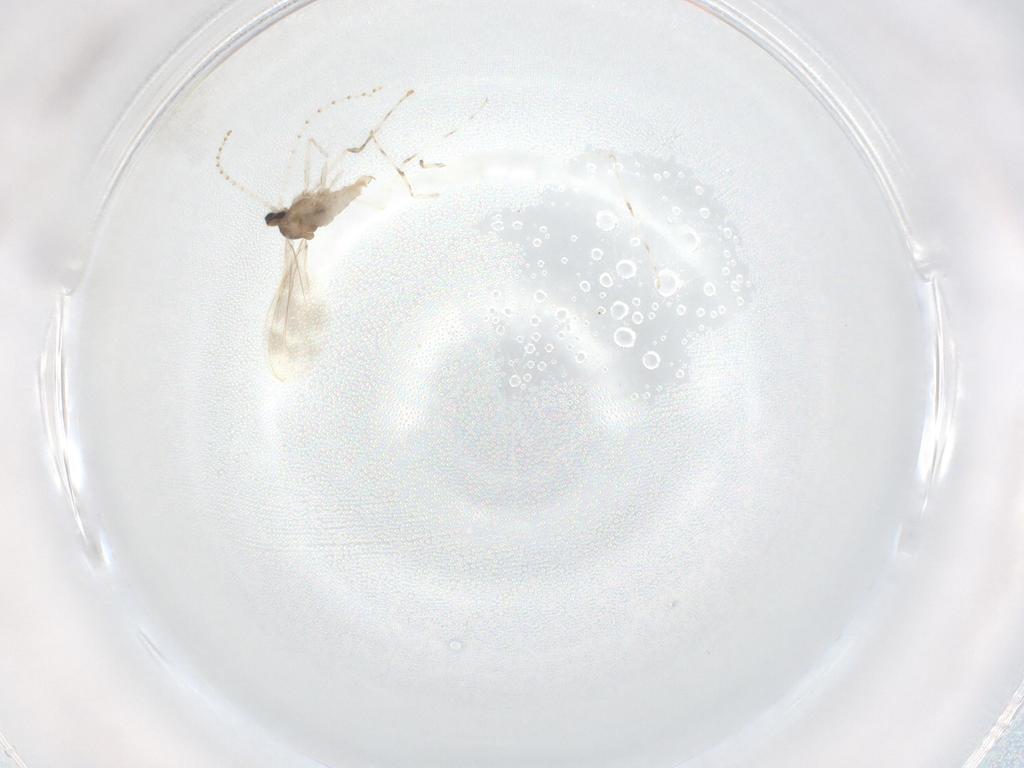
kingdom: Animalia
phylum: Arthropoda
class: Insecta
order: Diptera
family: Cecidomyiidae
